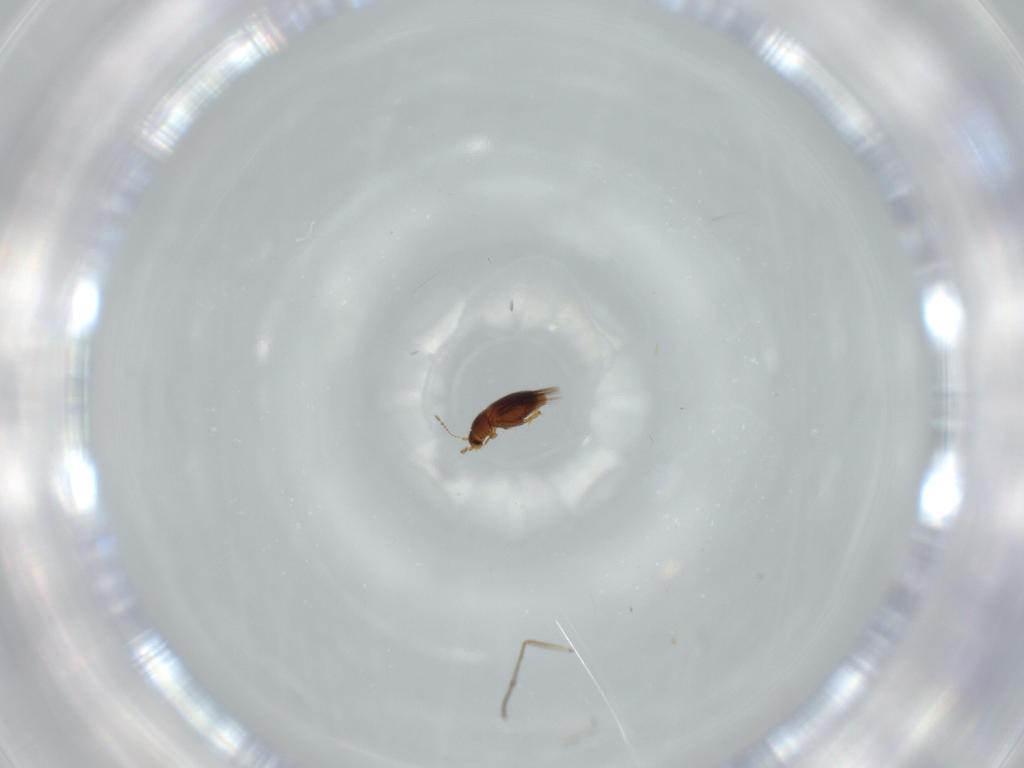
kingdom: Animalia
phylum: Arthropoda
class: Insecta
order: Coleoptera
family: Ptiliidae
